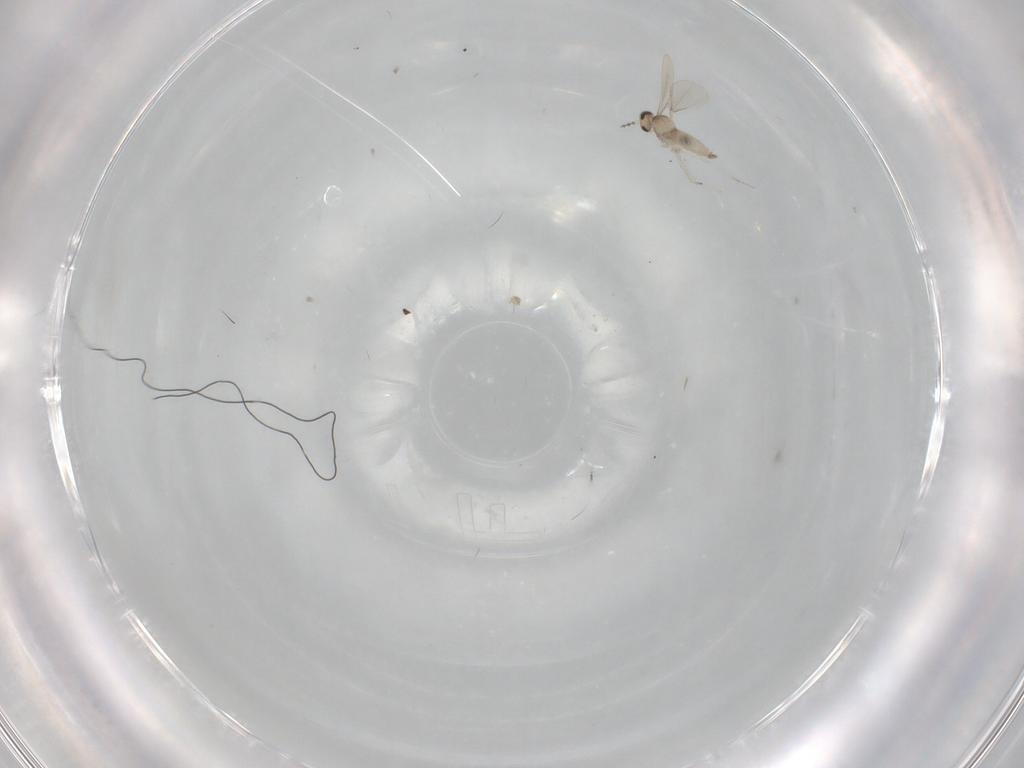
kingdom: Animalia
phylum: Arthropoda
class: Insecta
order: Diptera
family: Cecidomyiidae
